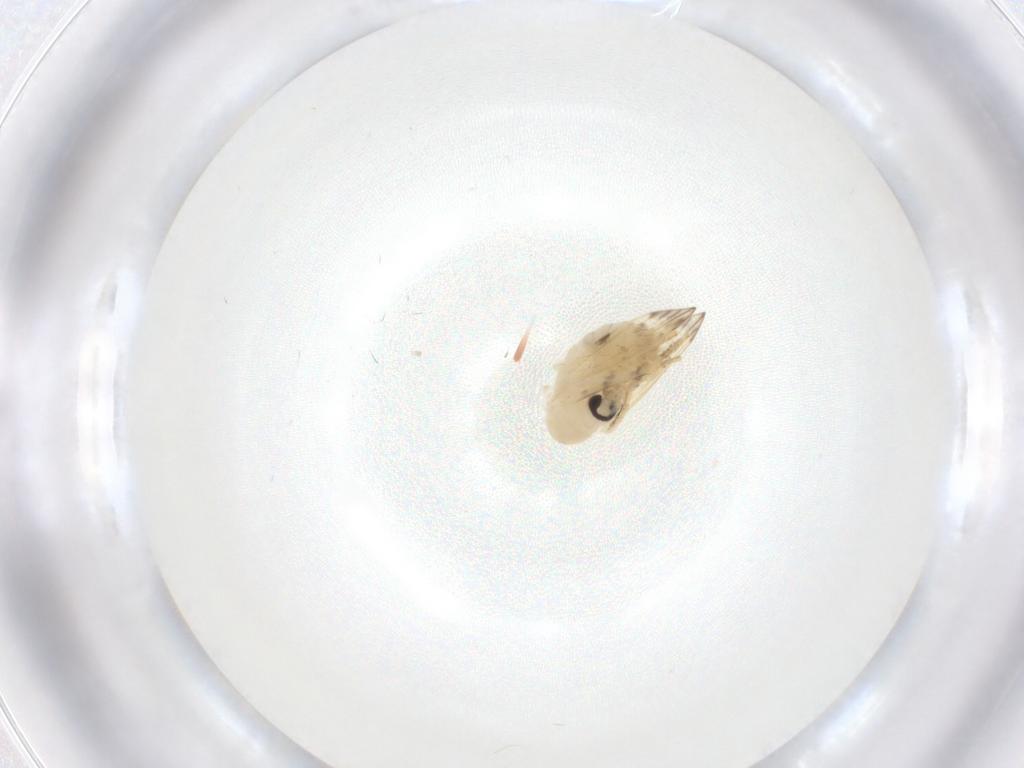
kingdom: Animalia
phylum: Arthropoda
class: Insecta
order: Diptera
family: Psychodidae
